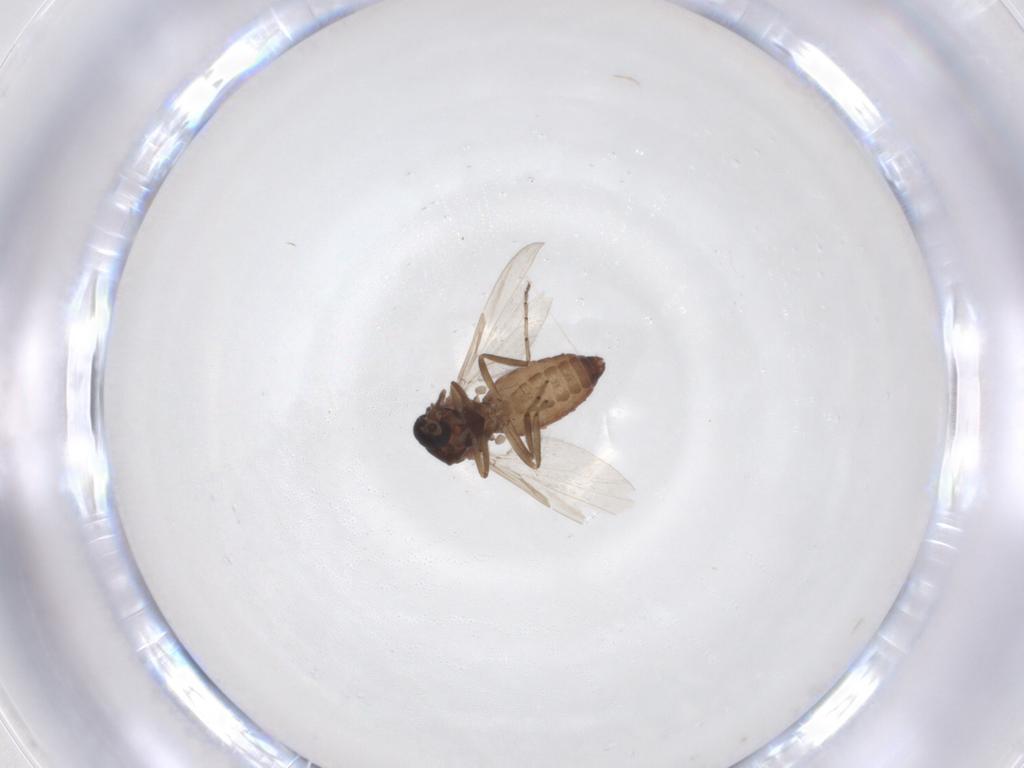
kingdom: Animalia
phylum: Arthropoda
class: Insecta
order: Diptera
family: Ceratopogonidae
